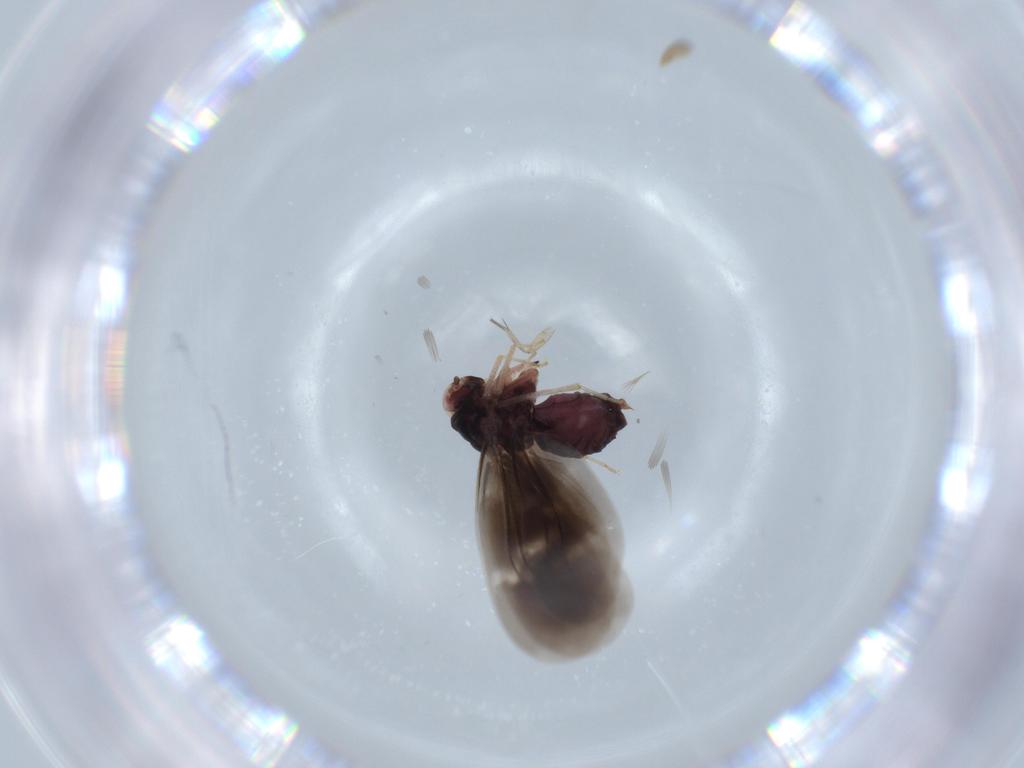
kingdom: Animalia
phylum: Arthropoda
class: Insecta
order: Hemiptera
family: Aleyrodidae
